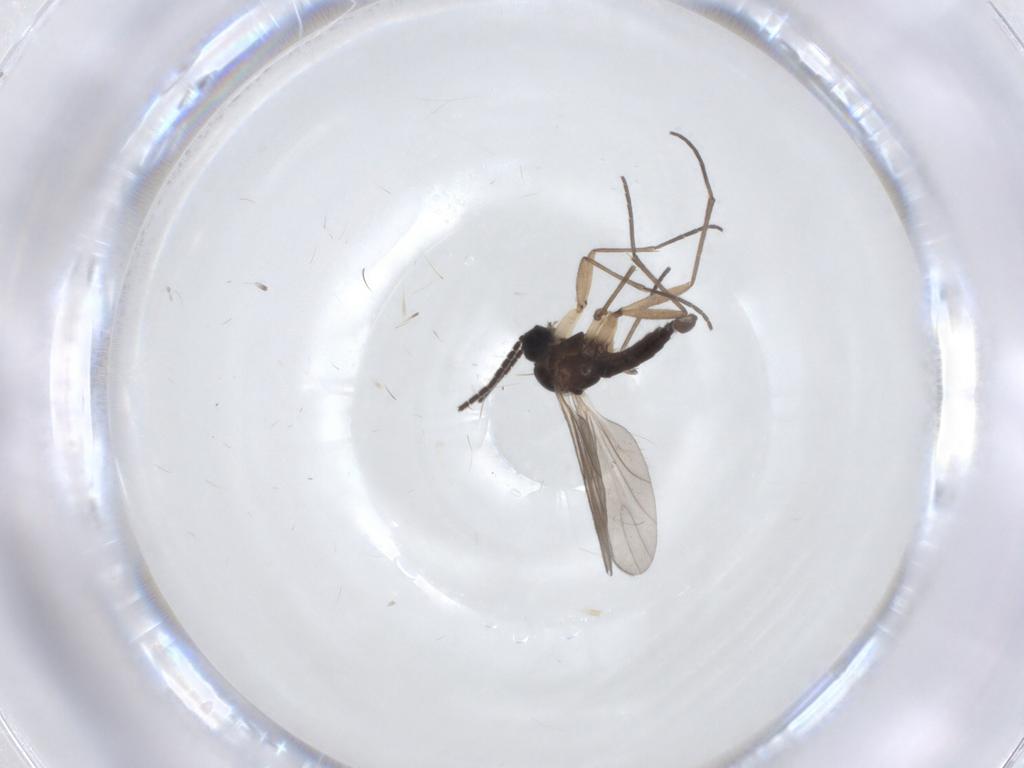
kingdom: Animalia
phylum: Arthropoda
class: Insecta
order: Diptera
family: Sciaridae
